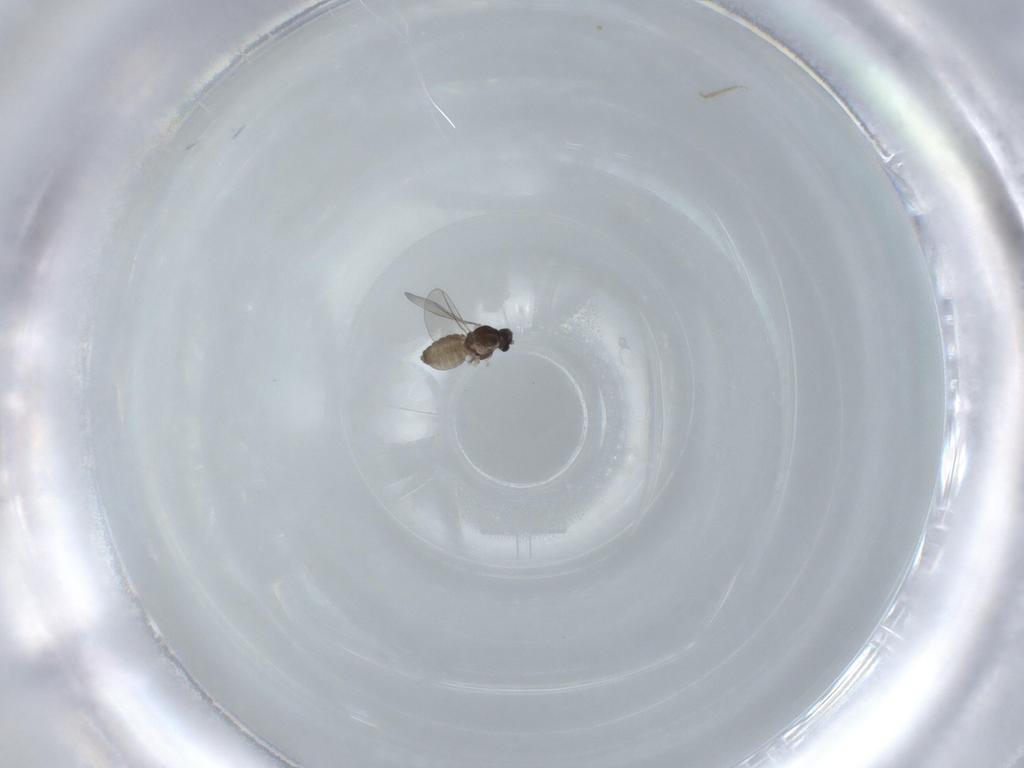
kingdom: Animalia
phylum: Arthropoda
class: Insecta
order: Diptera
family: Cecidomyiidae
